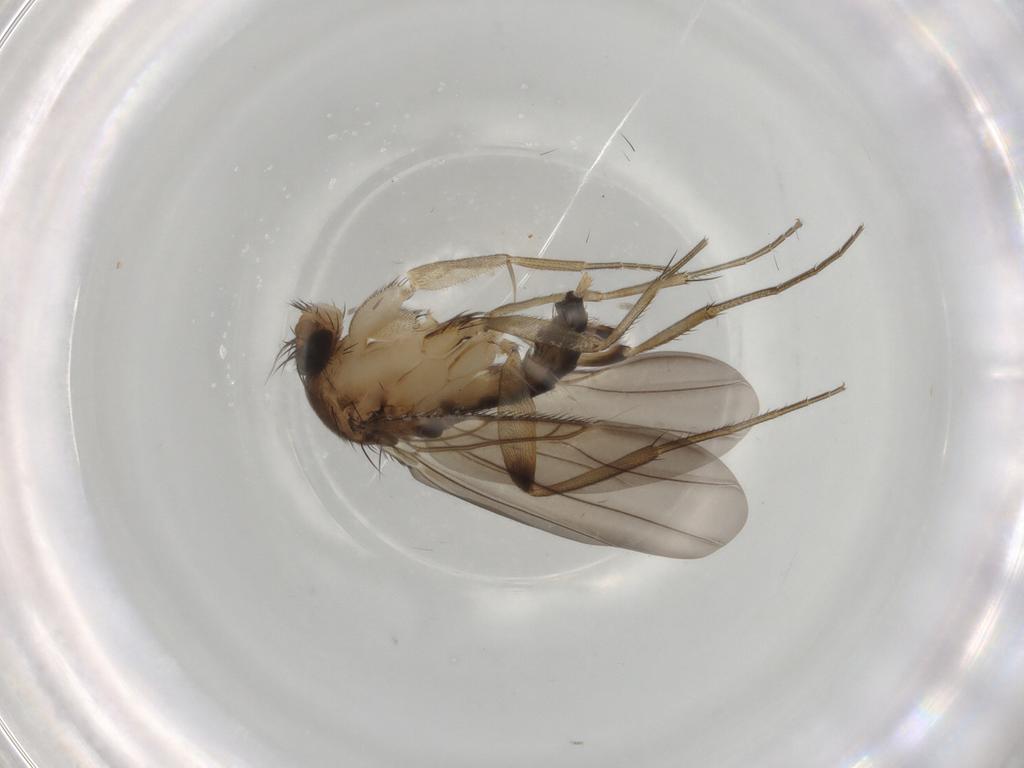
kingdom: Animalia
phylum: Arthropoda
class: Insecta
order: Diptera
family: Phoridae
